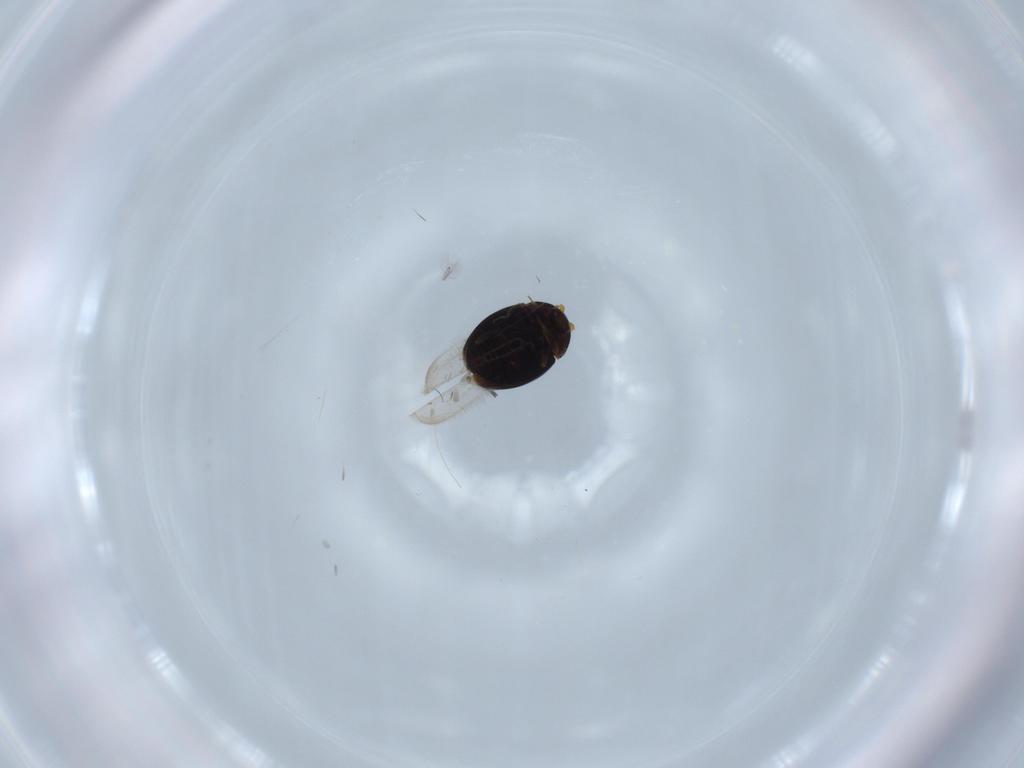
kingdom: Animalia
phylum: Arthropoda
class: Insecta
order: Coleoptera
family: Corylophidae
